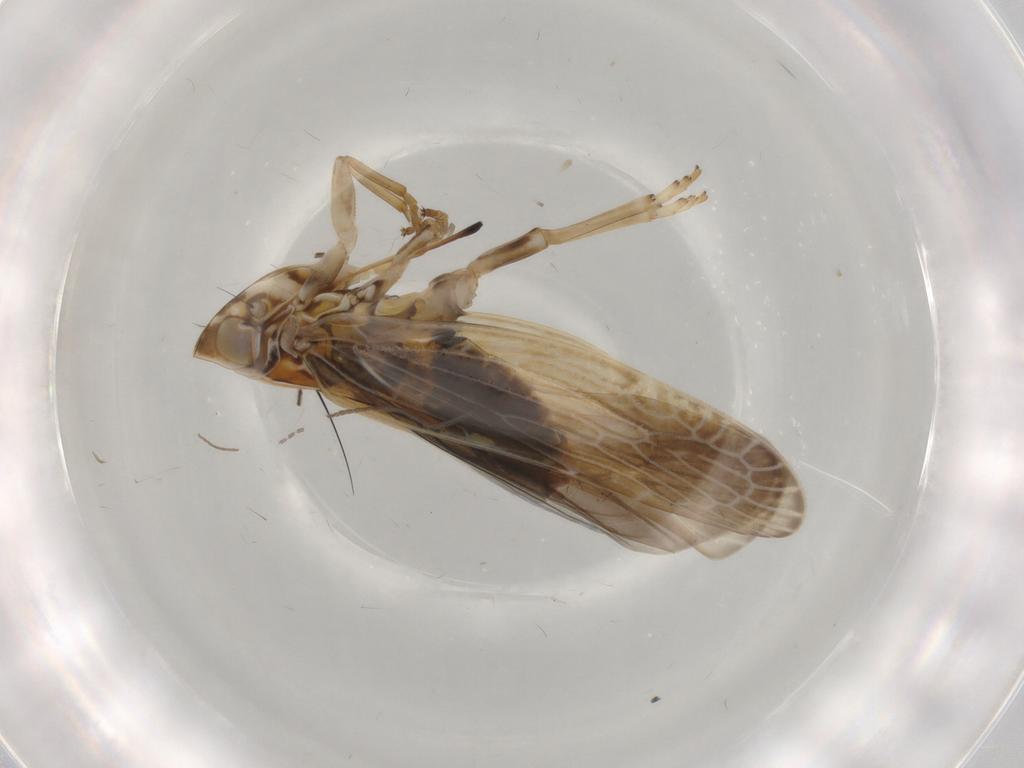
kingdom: Animalia
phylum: Arthropoda
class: Insecta
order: Hemiptera
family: Achilidae
